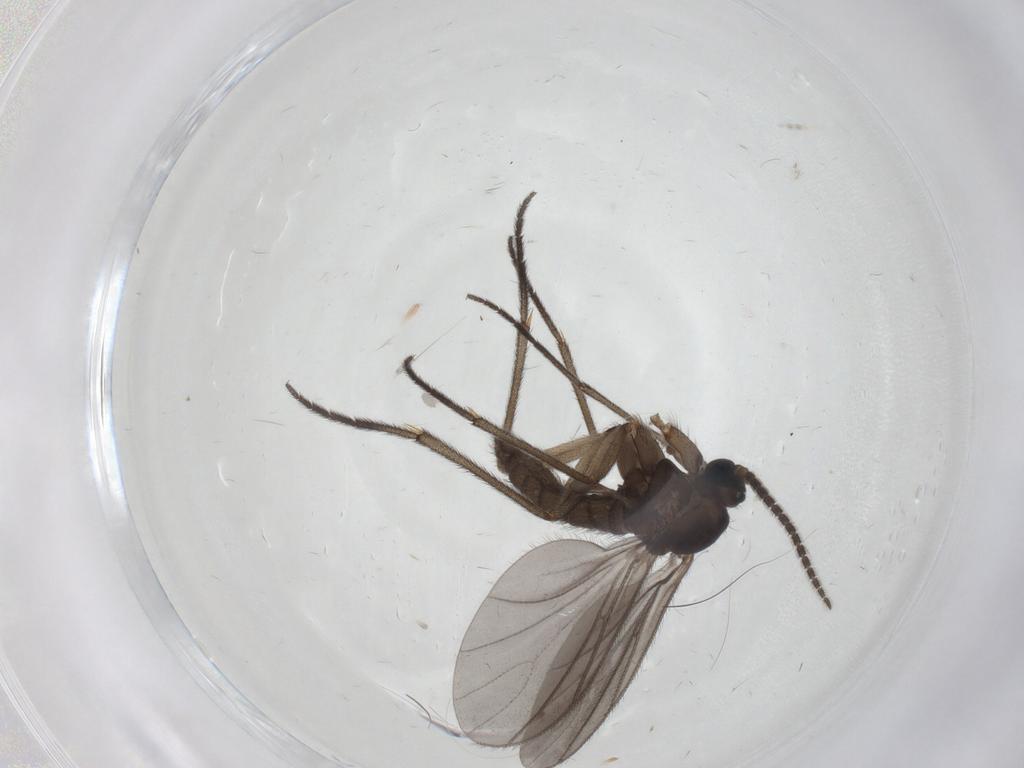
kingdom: Animalia
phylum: Arthropoda
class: Insecta
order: Diptera
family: Sciaridae
